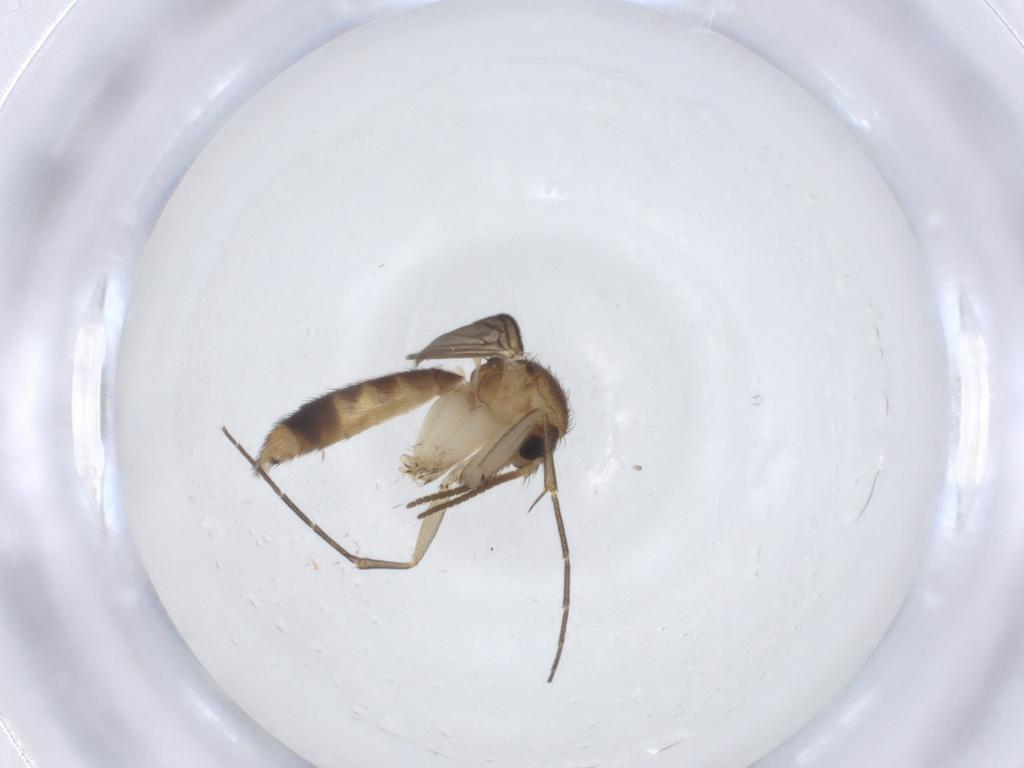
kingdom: Animalia
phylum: Arthropoda
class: Insecta
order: Diptera
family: Mycetophilidae
